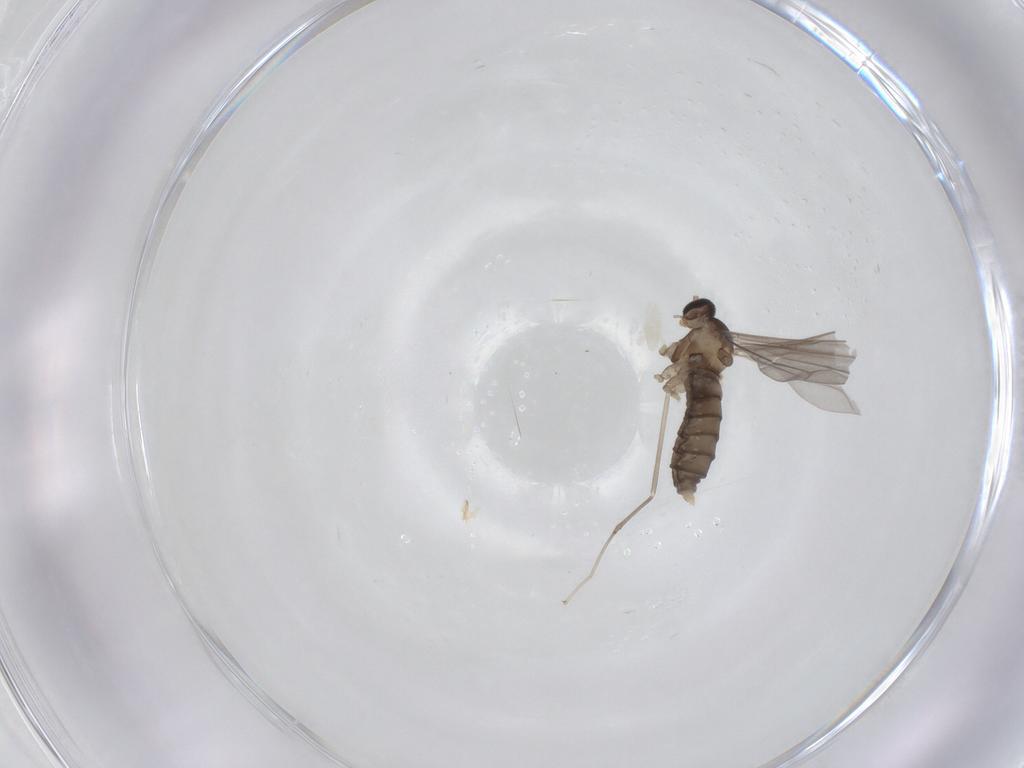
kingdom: Animalia
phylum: Arthropoda
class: Insecta
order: Diptera
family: Cecidomyiidae
